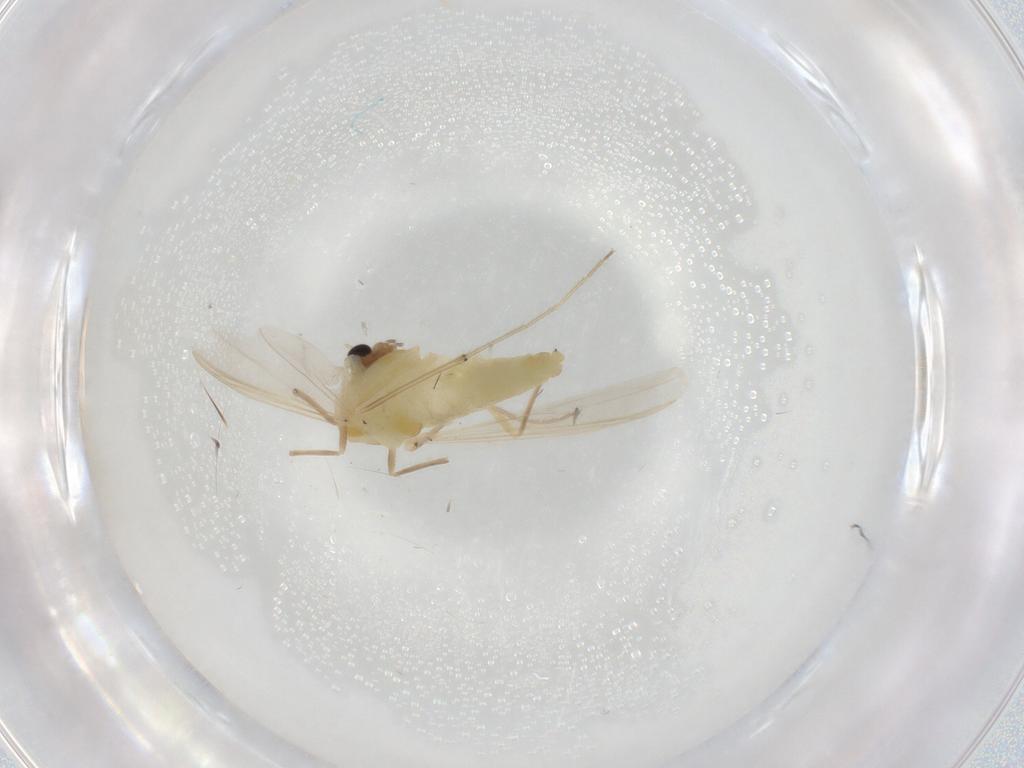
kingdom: Animalia
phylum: Arthropoda
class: Insecta
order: Diptera
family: Chironomidae
